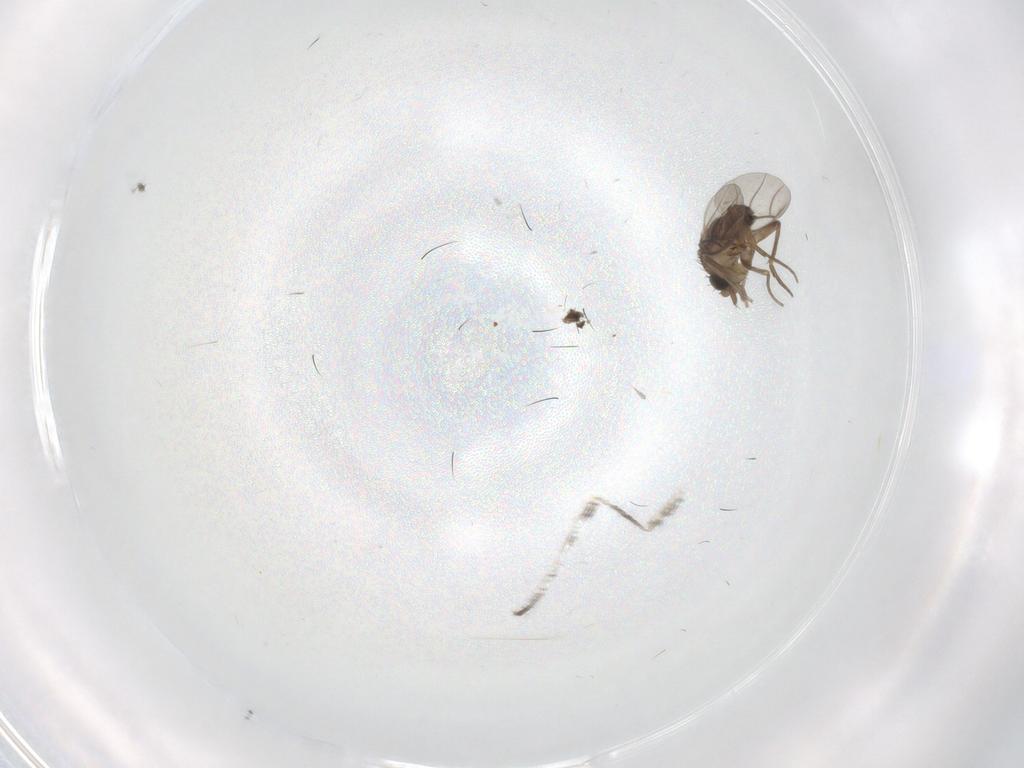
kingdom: Animalia
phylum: Arthropoda
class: Insecta
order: Diptera
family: Phoridae
